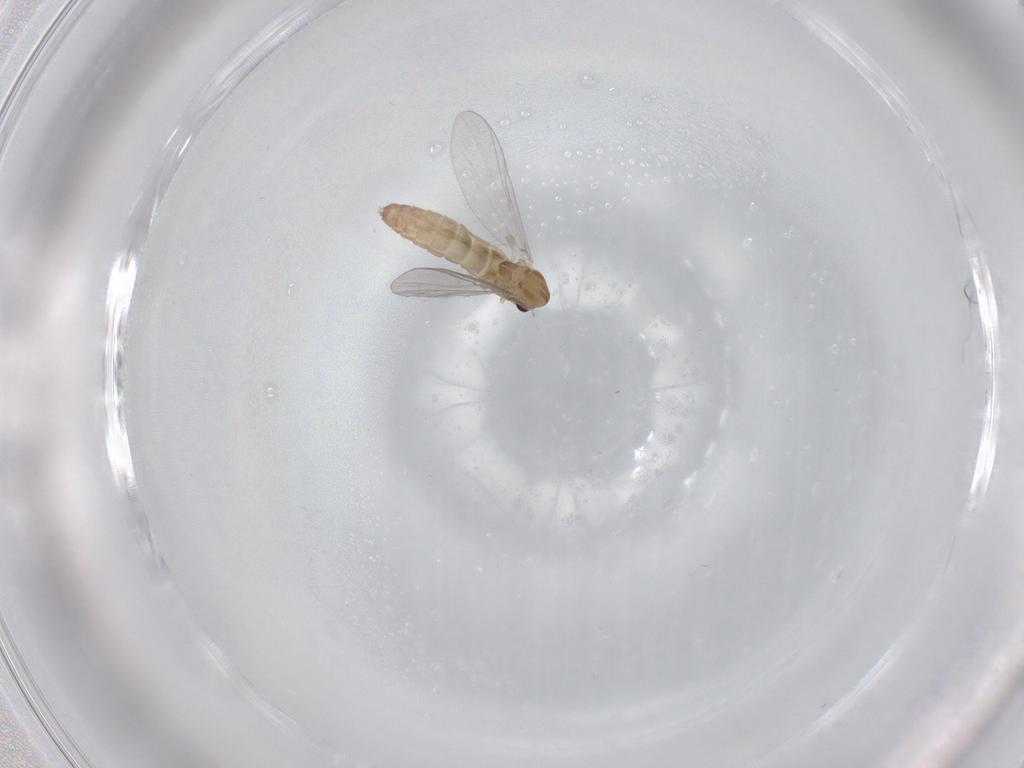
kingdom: Animalia
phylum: Arthropoda
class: Insecta
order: Diptera
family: Chironomidae
